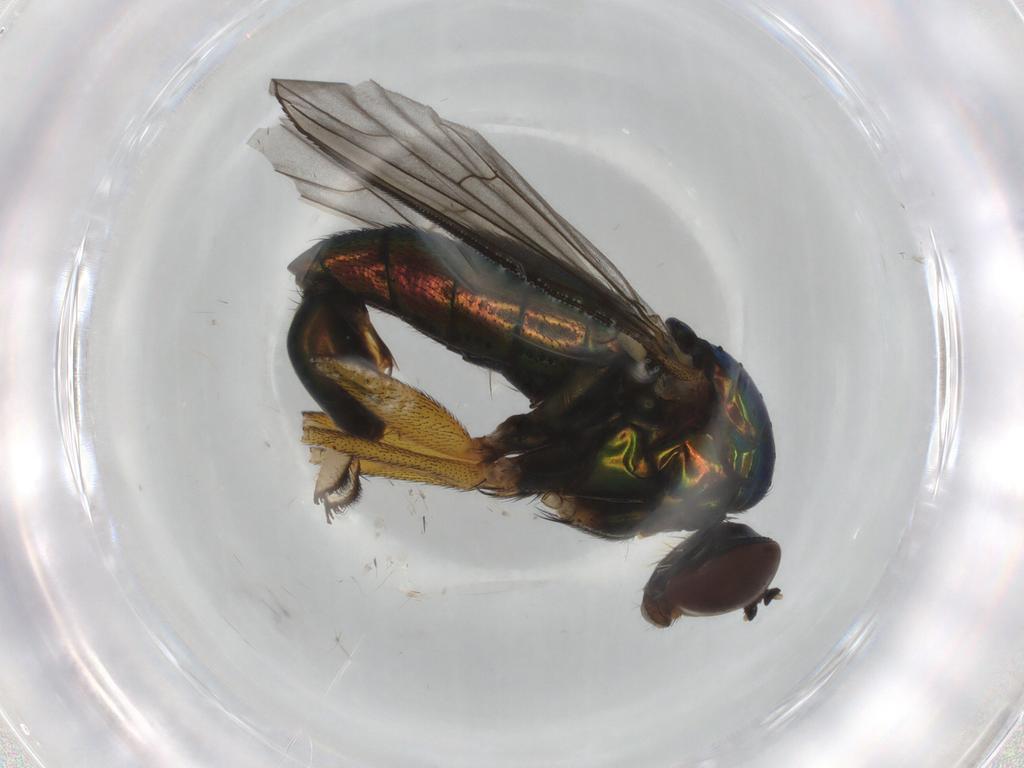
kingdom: Animalia
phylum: Arthropoda
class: Insecta
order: Diptera
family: Dolichopodidae
